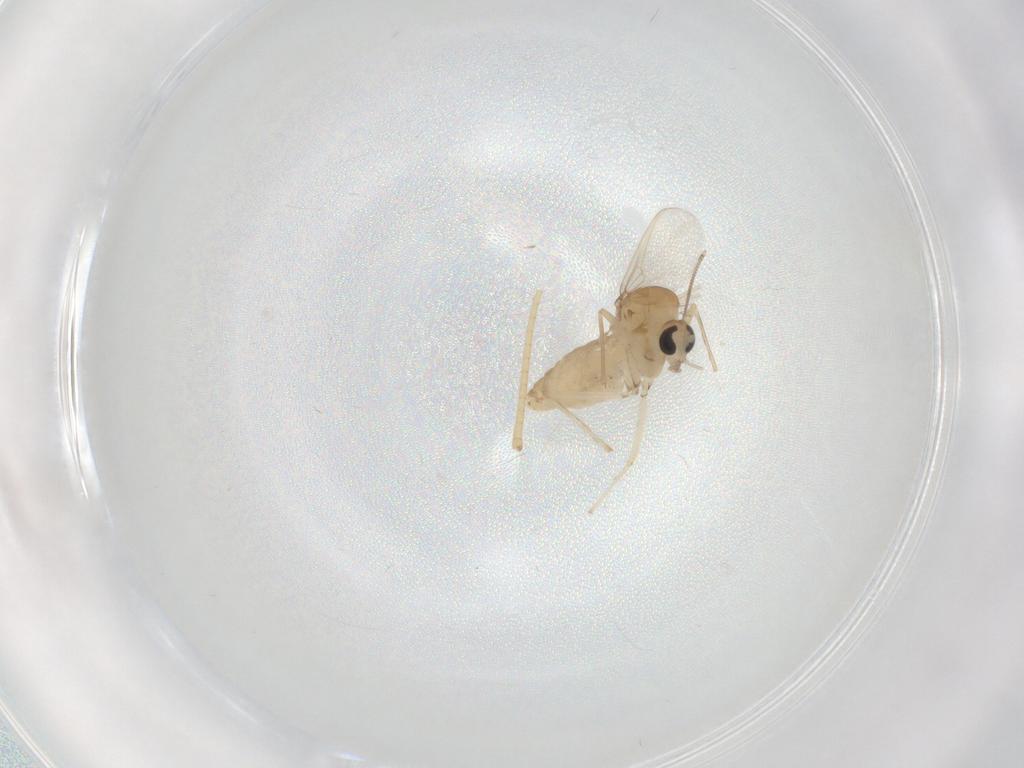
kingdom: Animalia
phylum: Arthropoda
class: Insecta
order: Diptera
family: Chironomidae
